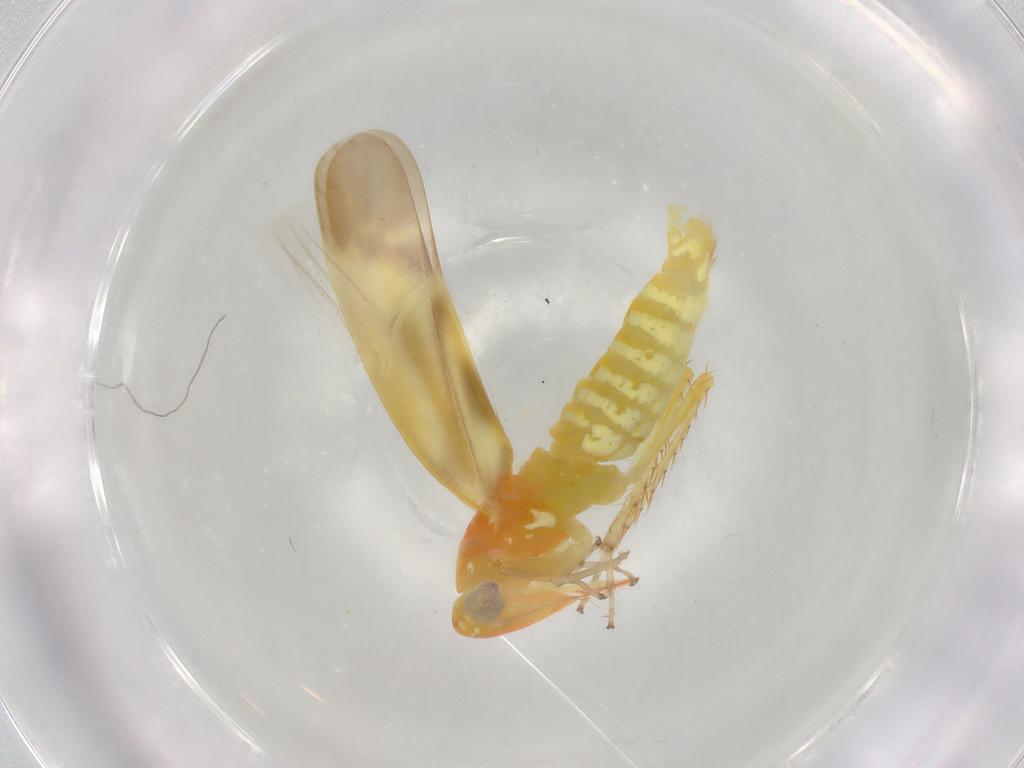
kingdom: Animalia
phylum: Arthropoda
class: Insecta
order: Hemiptera
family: Cicadellidae
